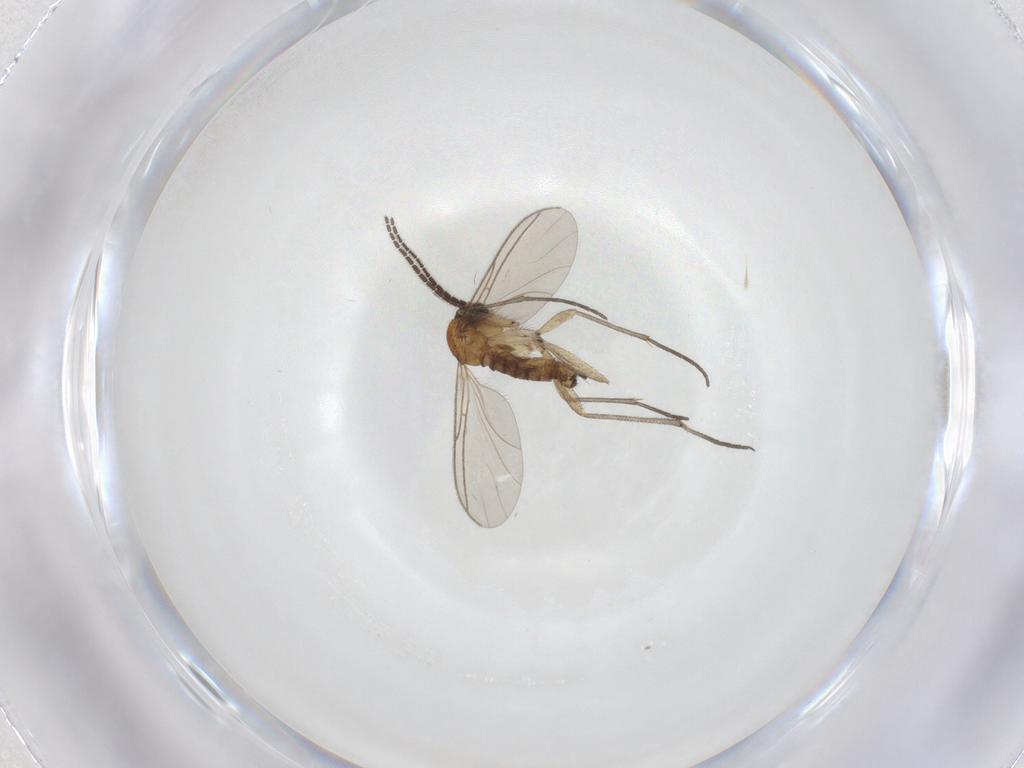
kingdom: Animalia
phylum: Arthropoda
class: Insecta
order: Diptera
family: Sciaridae
